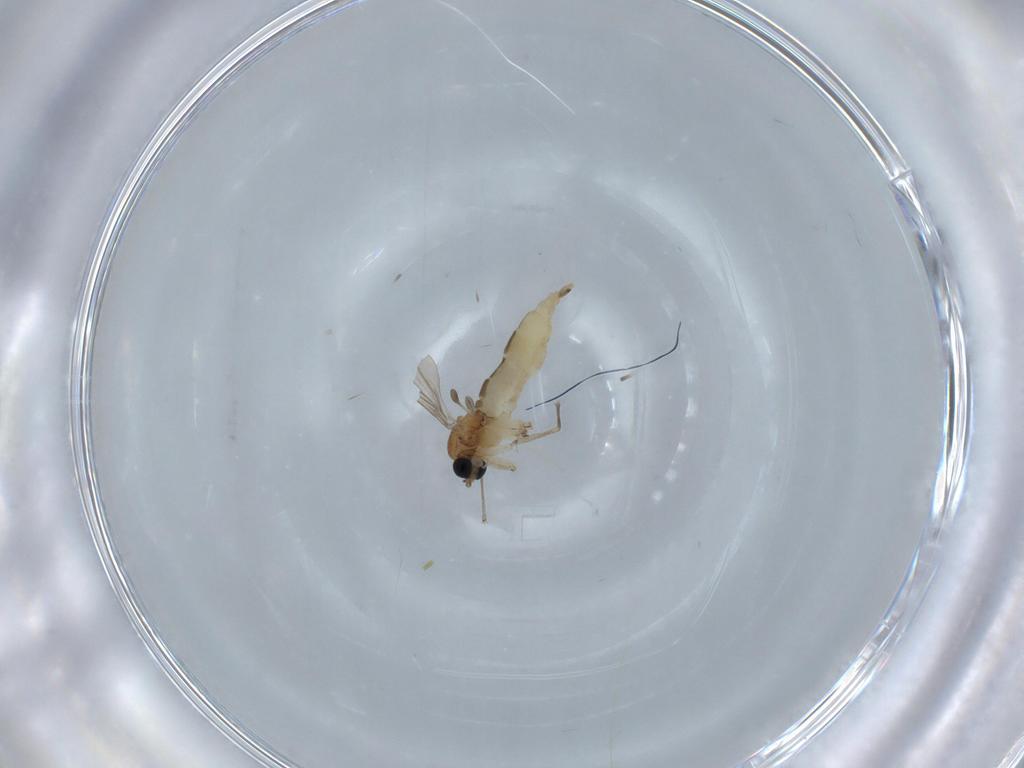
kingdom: Animalia
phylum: Arthropoda
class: Insecta
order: Diptera
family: Sciaridae
